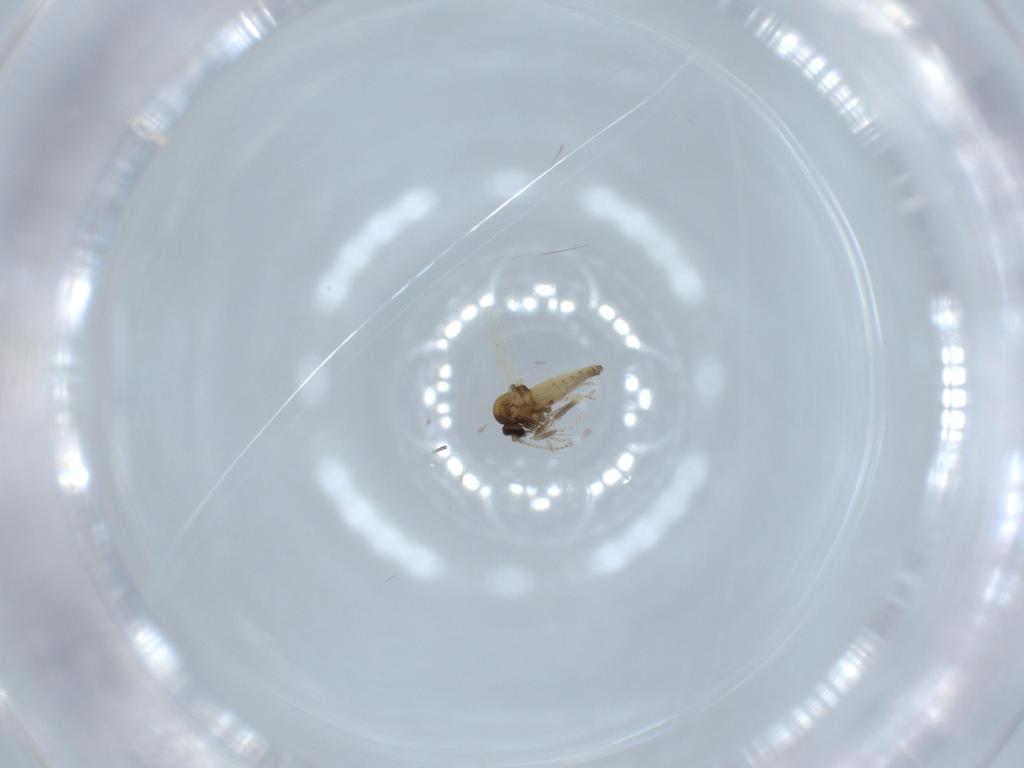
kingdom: Animalia
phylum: Arthropoda
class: Insecta
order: Diptera
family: Ceratopogonidae
